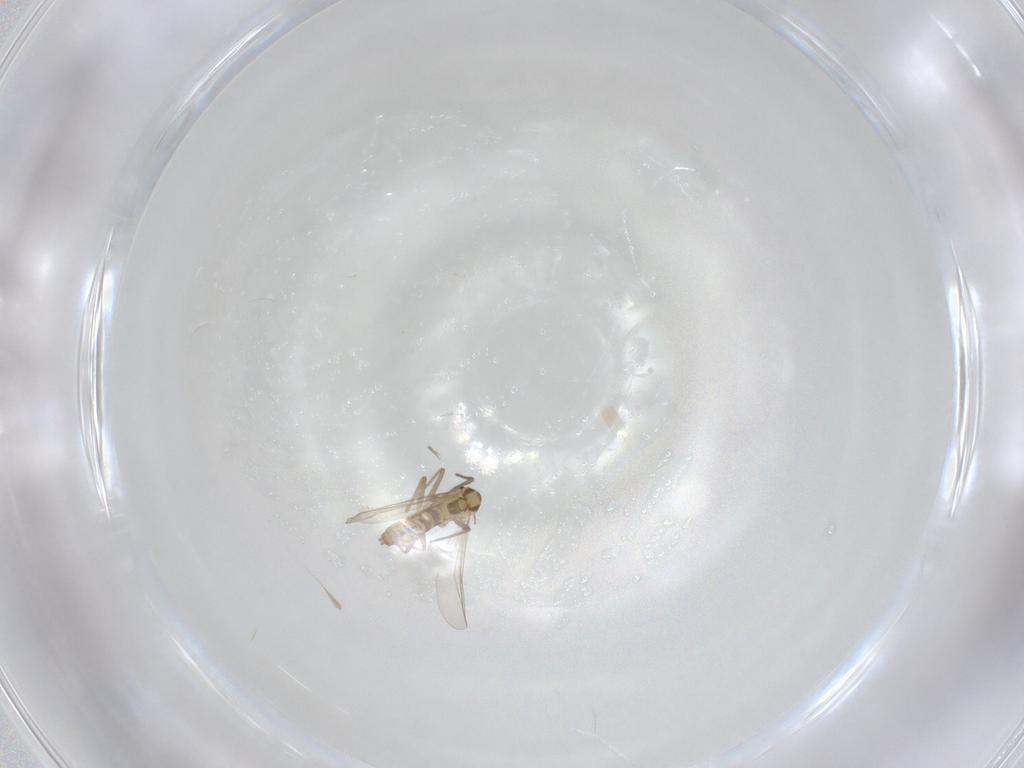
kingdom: Animalia
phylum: Arthropoda
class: Insecta
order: Diptera
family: Chironomidae
